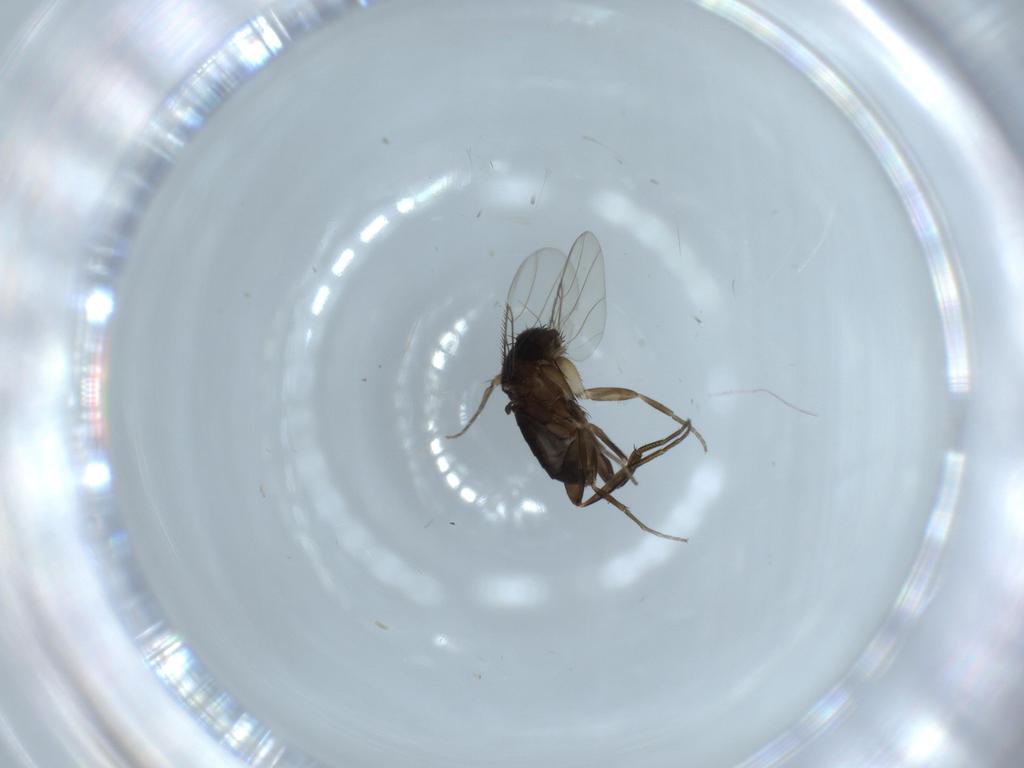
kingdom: Animalia
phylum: Arthropoda
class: Insecta
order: Diptera
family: Phoridae
